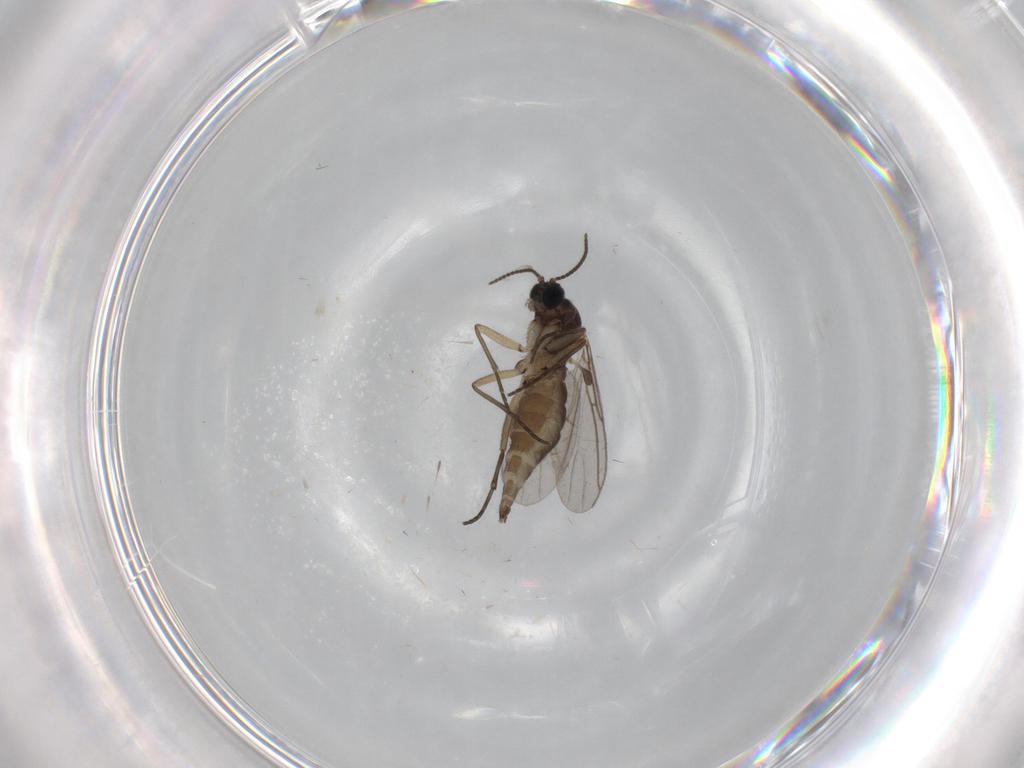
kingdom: Animalia
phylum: Arthropoda
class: Insecta
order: Diptera
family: Sciaridae
